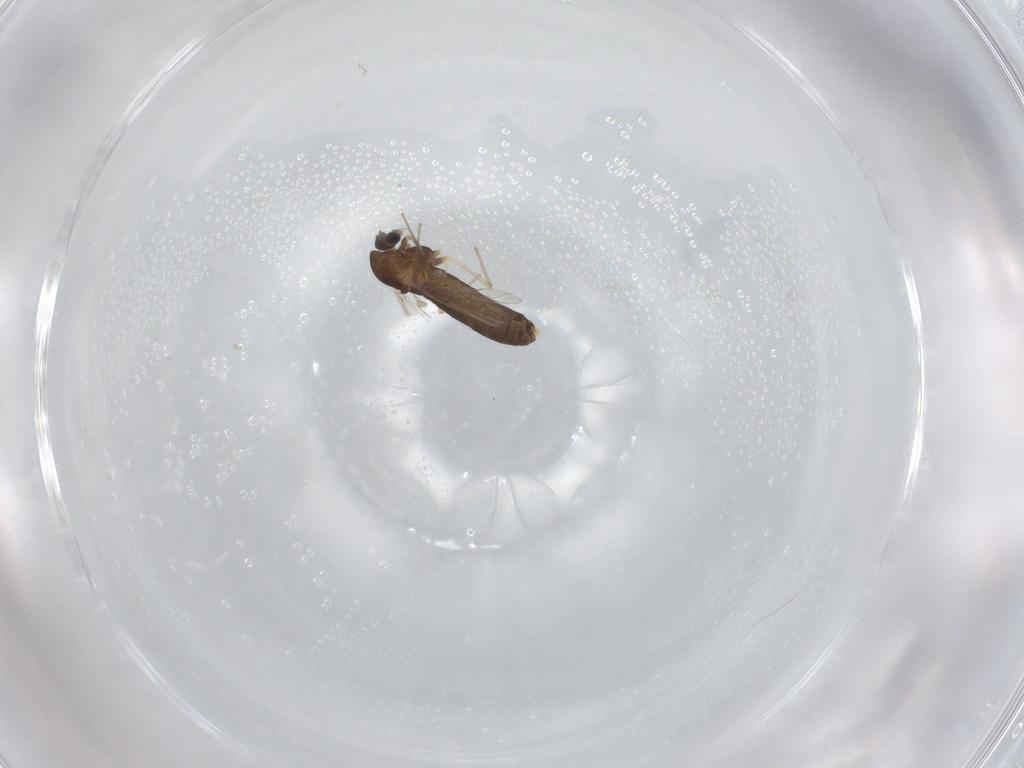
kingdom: Animalia
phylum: Arthropoda
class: Insecta
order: Diptera
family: Chironomidae
